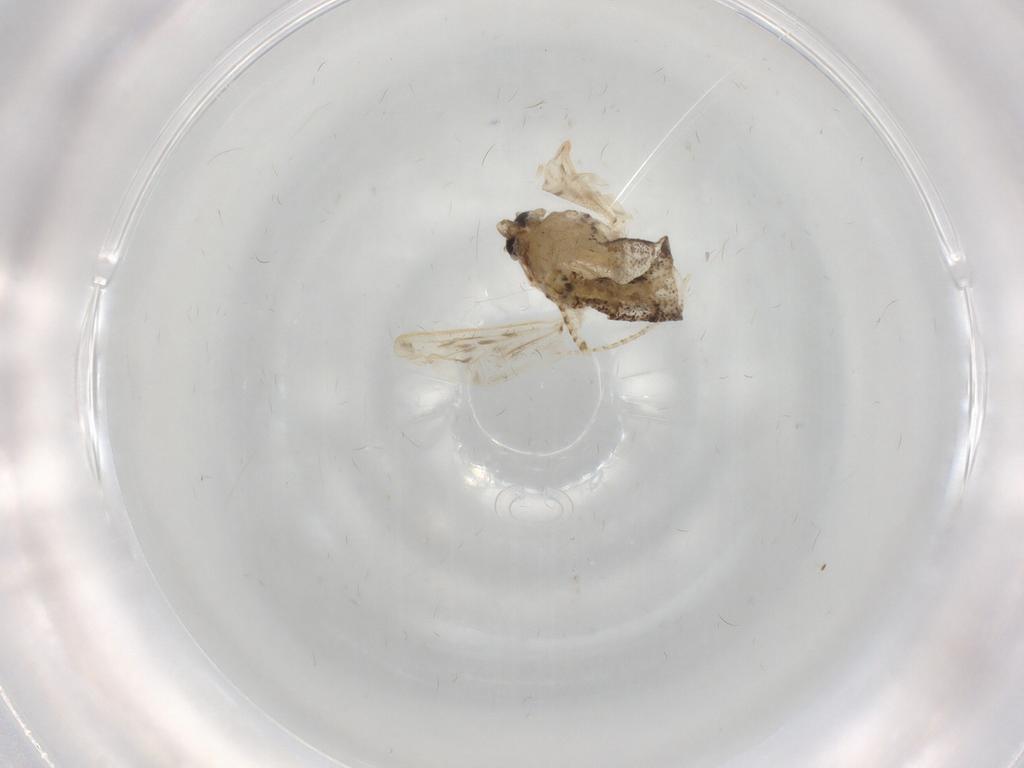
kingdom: Animalia
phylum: Arthropoda
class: Insecta
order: Diptera
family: Chaoboridae
